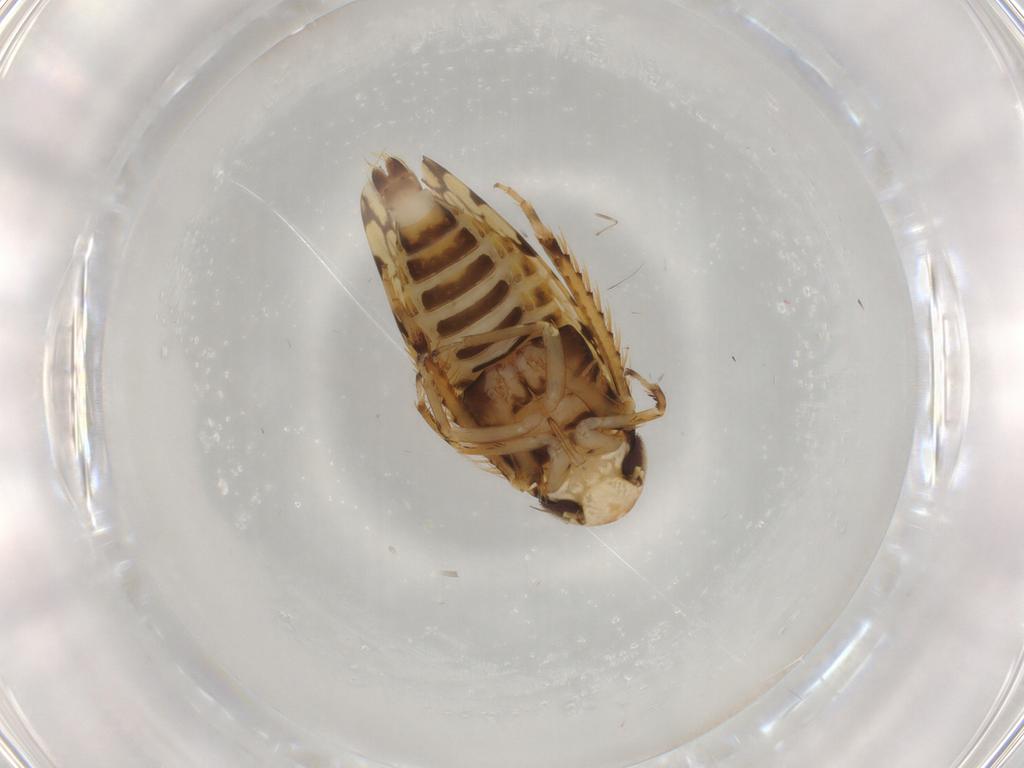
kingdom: Animalia
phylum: Arthropoda
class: Insecta
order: Hemiptera
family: Cicadellidae
